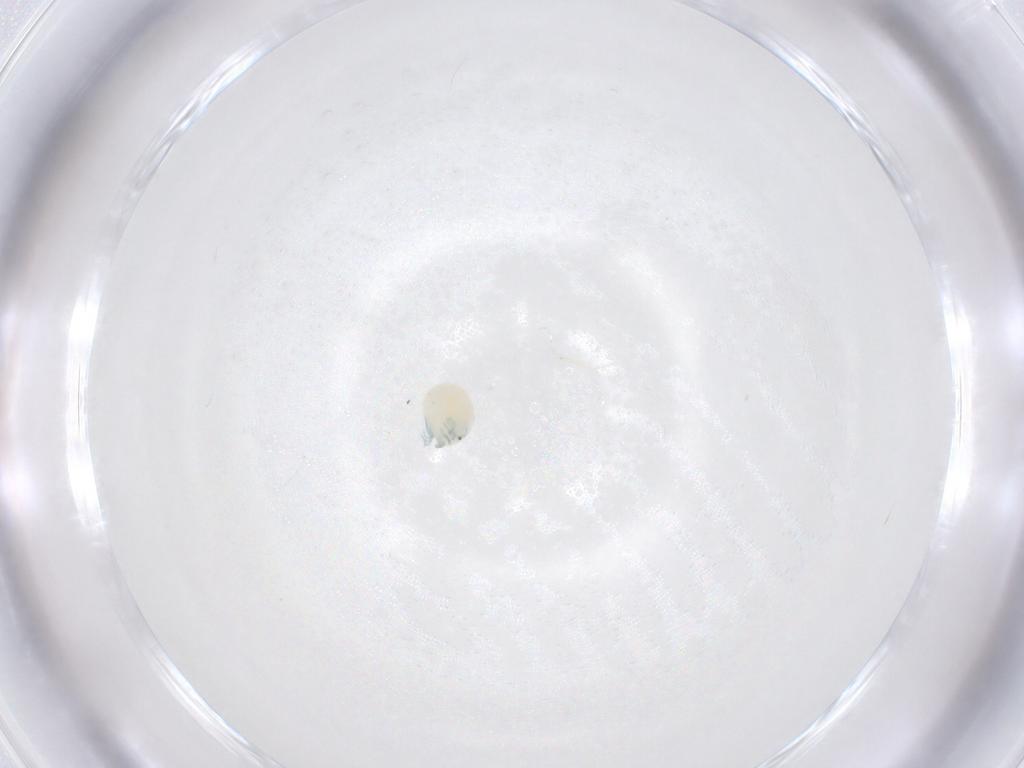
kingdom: Animalia
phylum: Arthropoda
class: Arachnida
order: Trombidiformes
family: Arrenuridae
